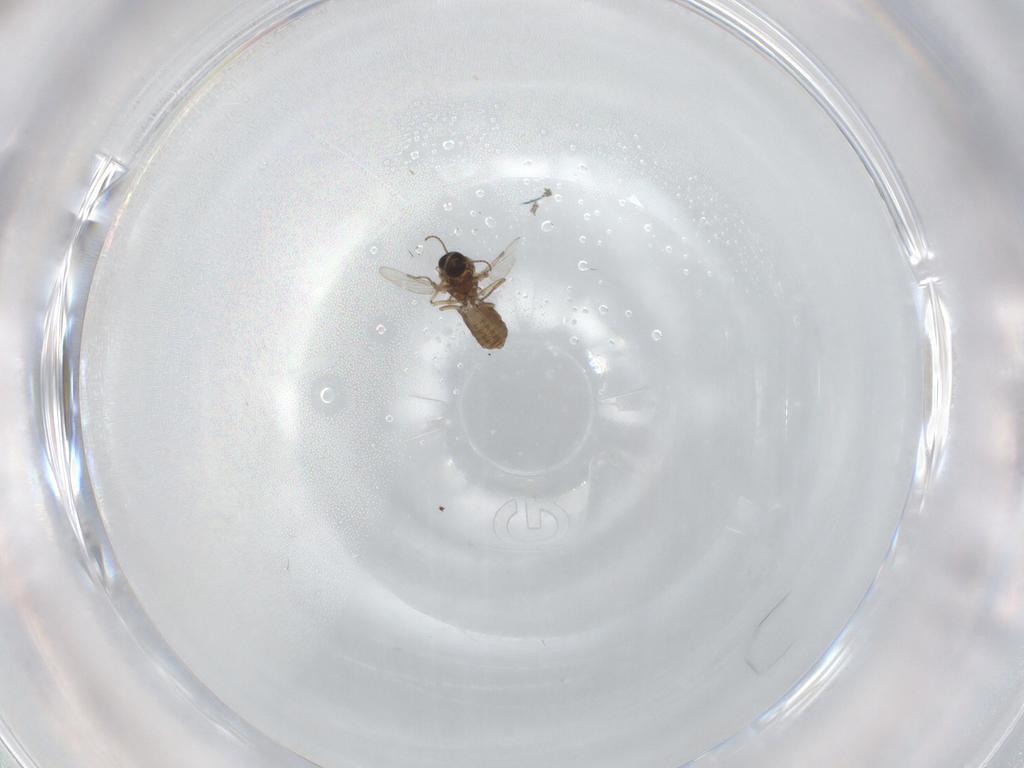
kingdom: Animalia
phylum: Arthropoda
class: Insecta
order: Diptera
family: Ceratopogonidae
